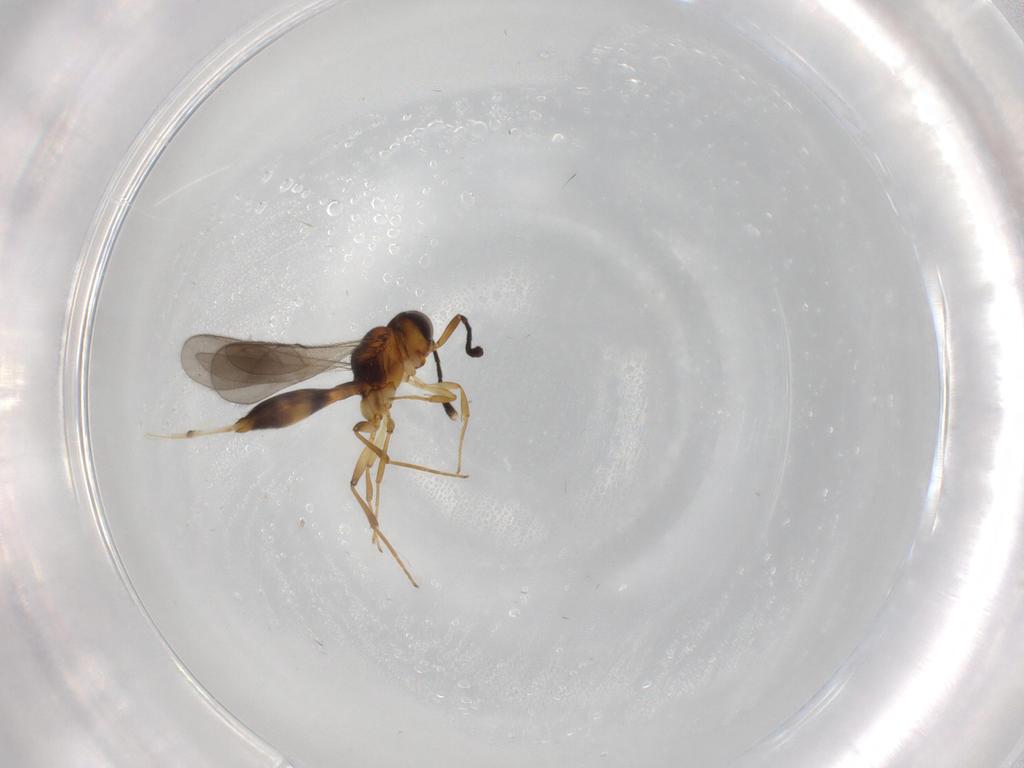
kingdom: Animalia
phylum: Arthropoda
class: Insecta
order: Hymenoptera
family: Scelionidae
